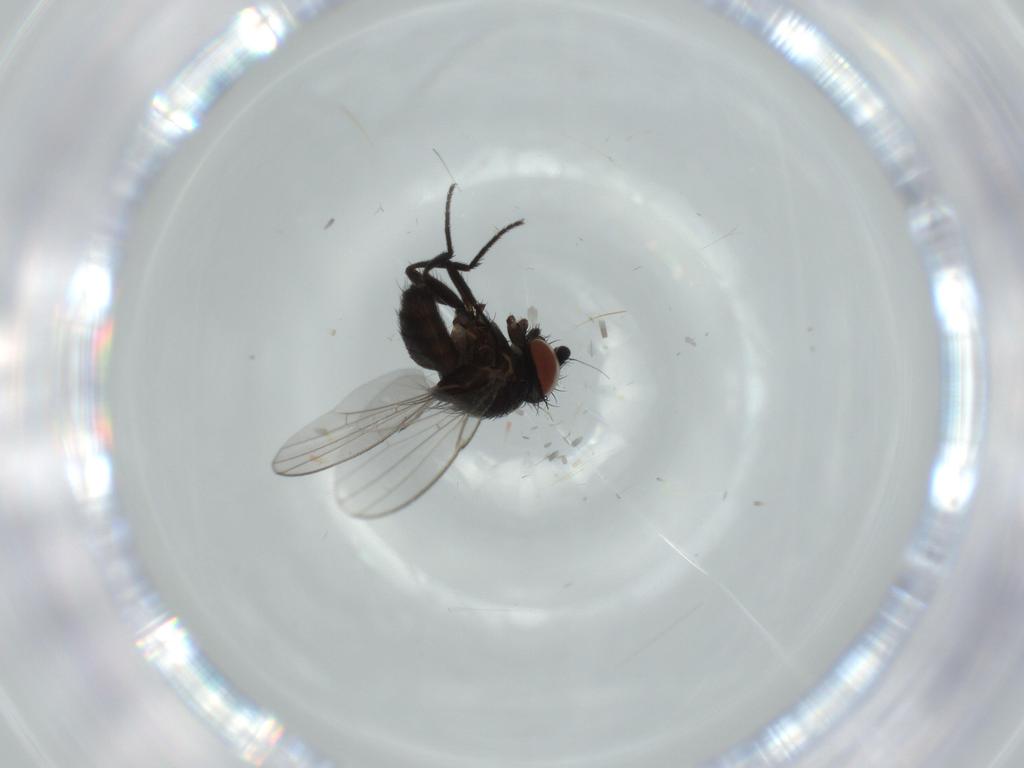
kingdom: Animalia
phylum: Arthropoda
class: Insecta
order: Diptera
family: Milichiidae
